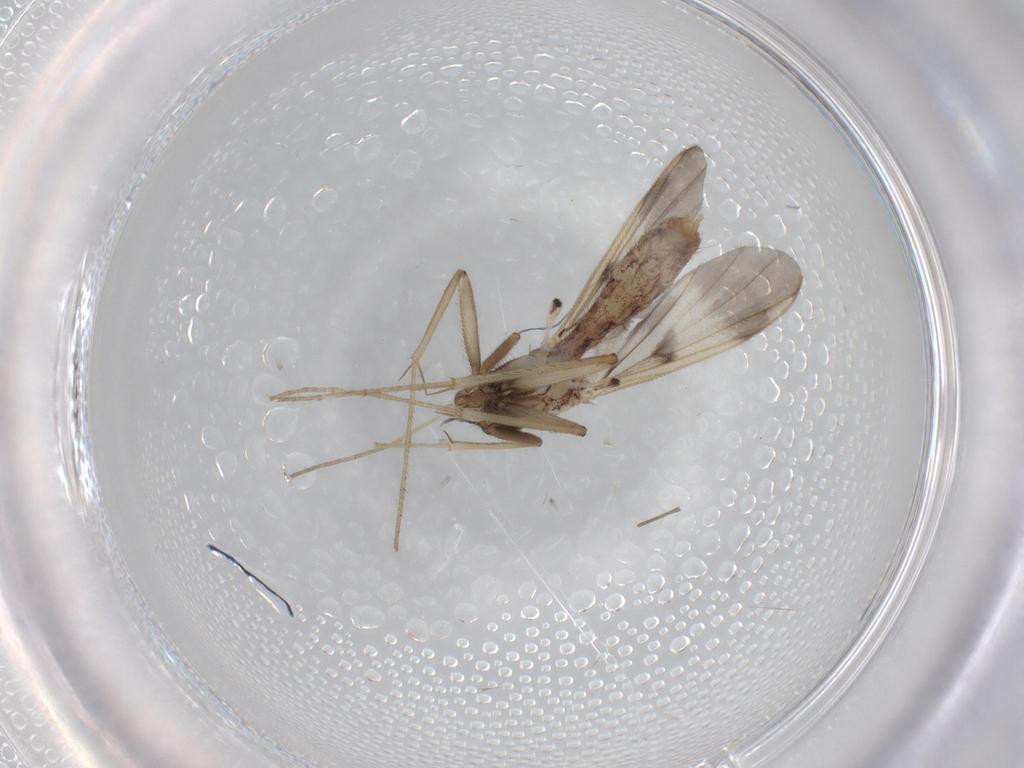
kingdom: Animalia
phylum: Arthropoda
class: Insecta
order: Diptera
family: Mycetophilidae
